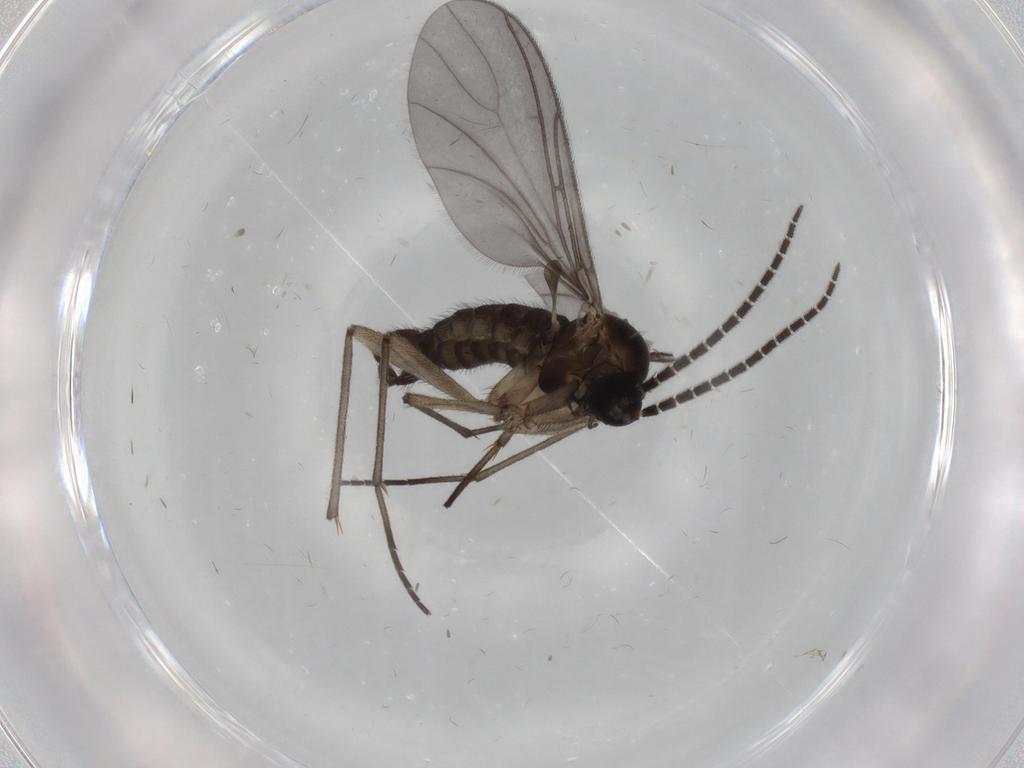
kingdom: Animalia
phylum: Arthropoda
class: Insecta
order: Diptera
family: Sciaridae
